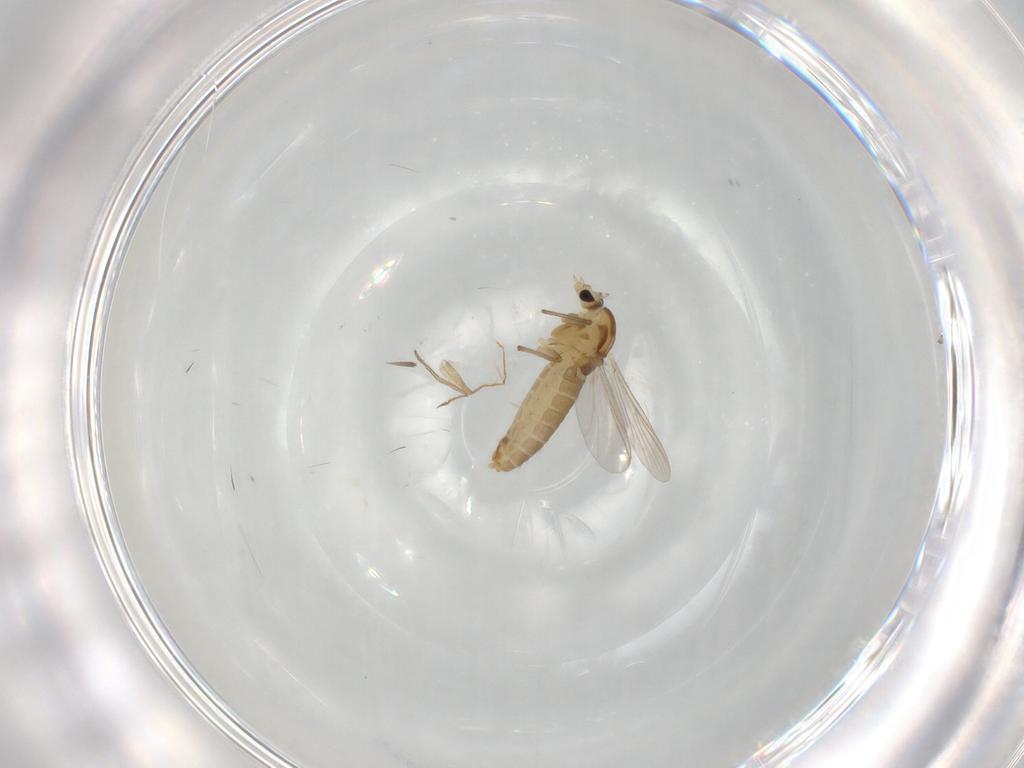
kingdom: Animalia
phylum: Arthropoda
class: Insecta
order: Diptera
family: Chironomidae
